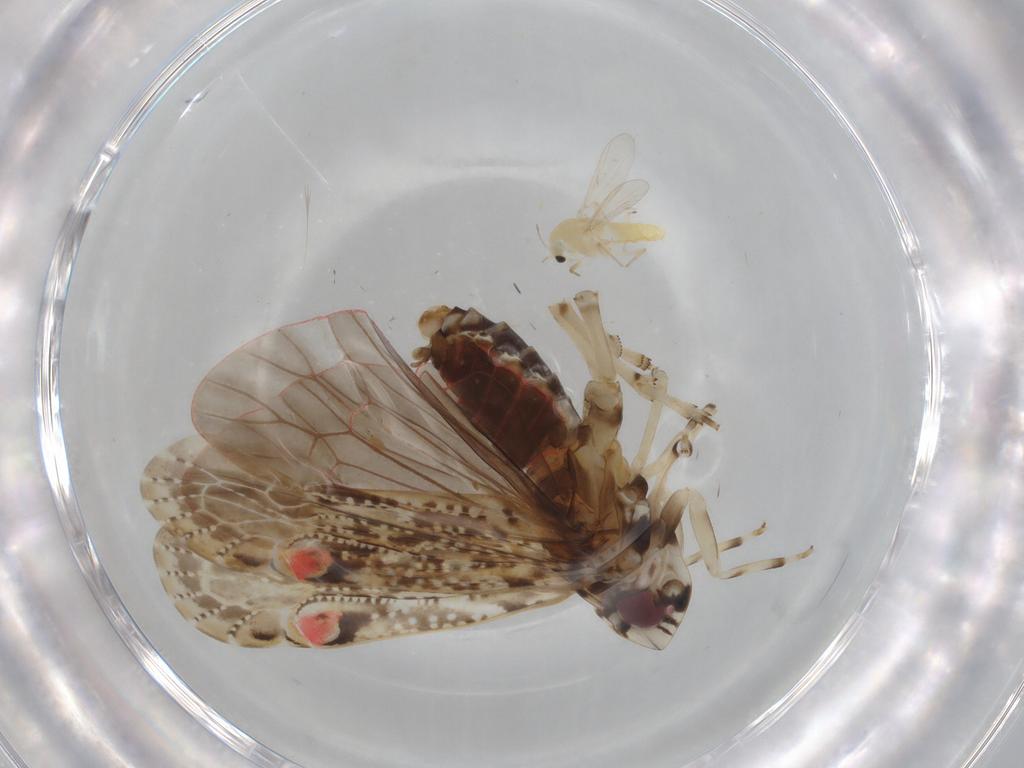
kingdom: Animalia
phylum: Arthropoda
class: Insecta
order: Diptera
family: Chironomidae
